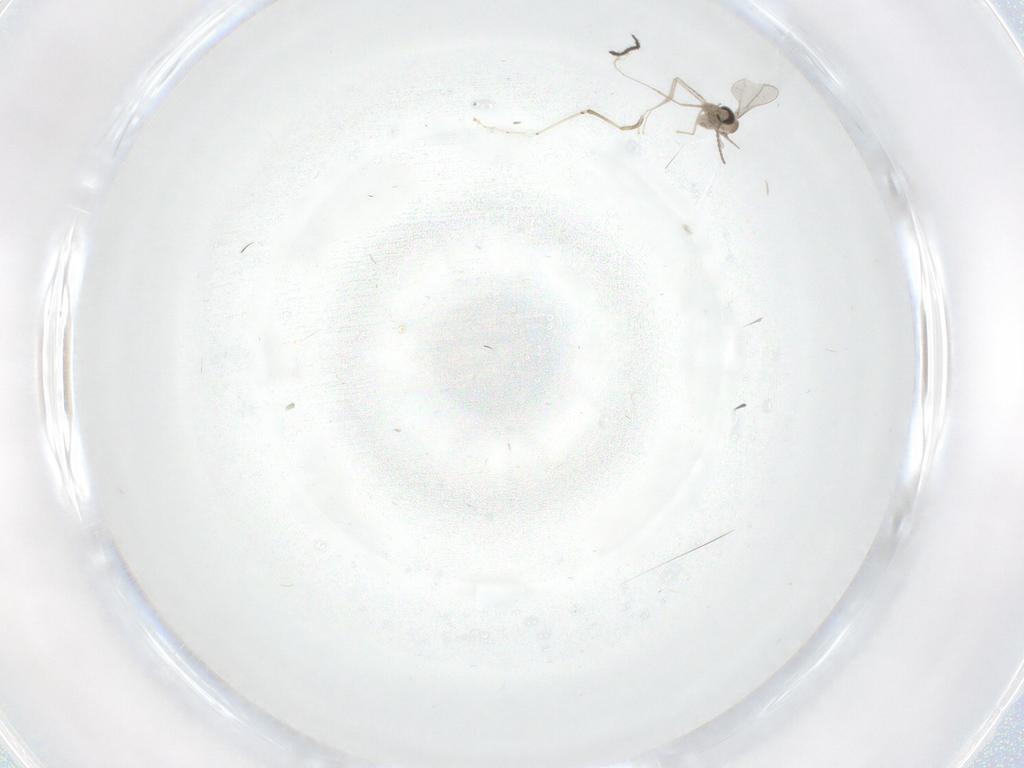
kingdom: Animalia
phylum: Arthropoda
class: Insecta
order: Diptera
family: Sciaridae
